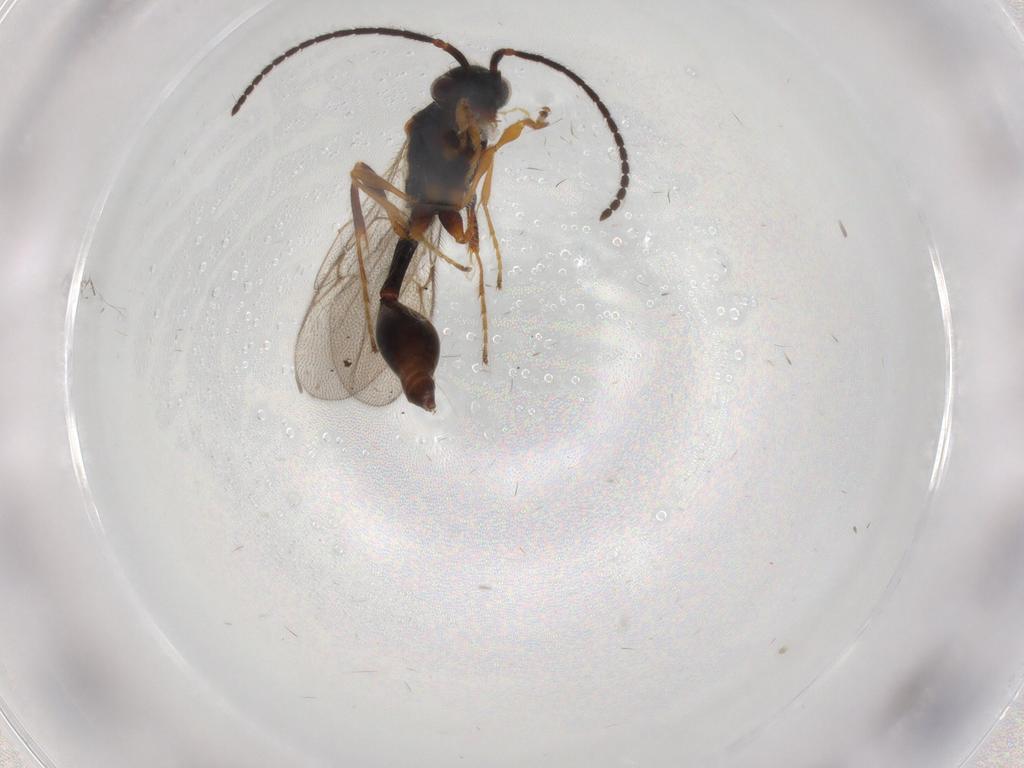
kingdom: Animalia
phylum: Arthropoda
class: Insecta
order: Hymenoptera
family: Diapriidae
